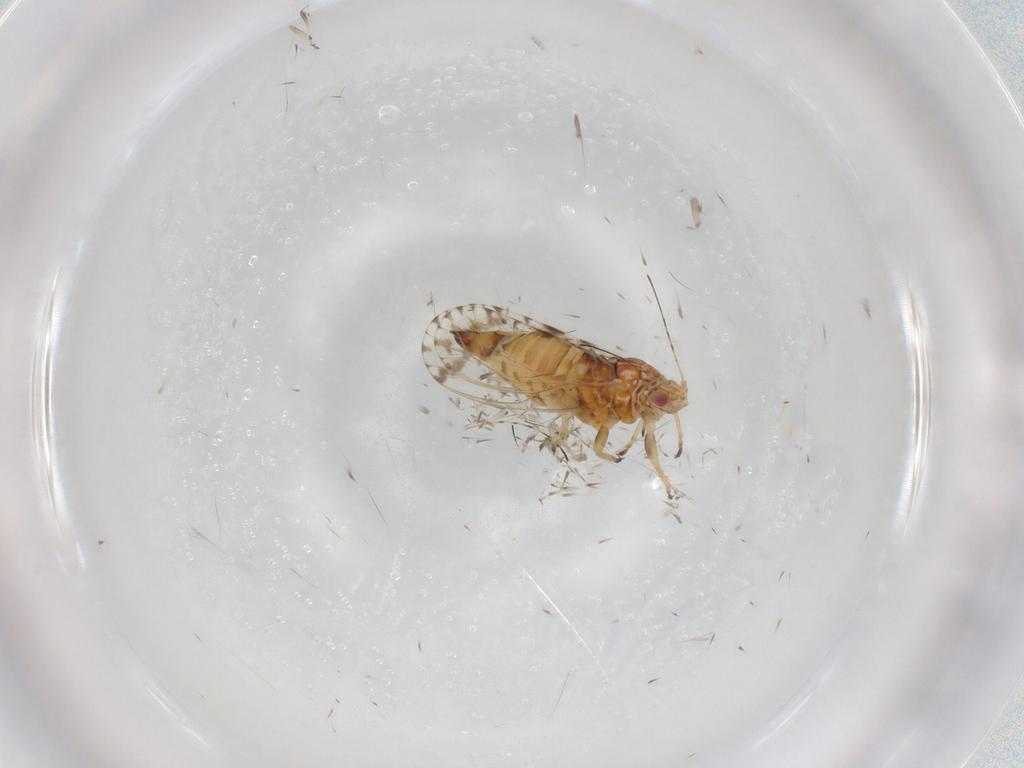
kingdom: Animalia
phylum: Arthropoda
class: Insecta
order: Hemiptera
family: Psyllidae
